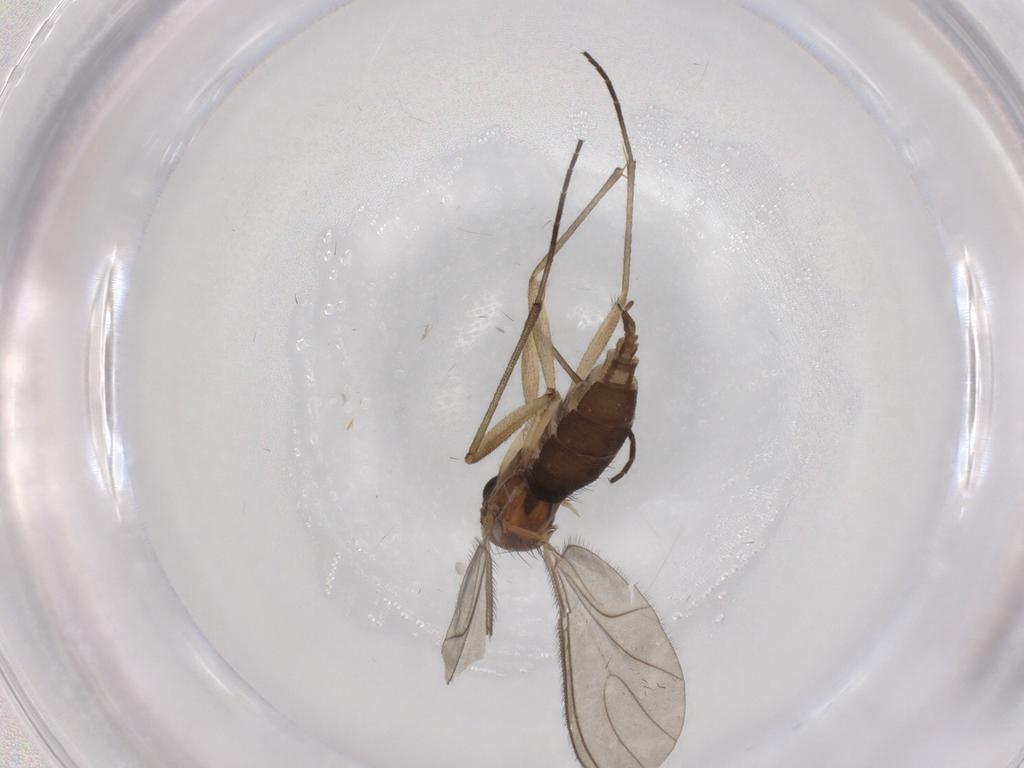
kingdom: Animalia
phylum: Arthropoda
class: Insecta
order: Diptera
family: Sciaridae
